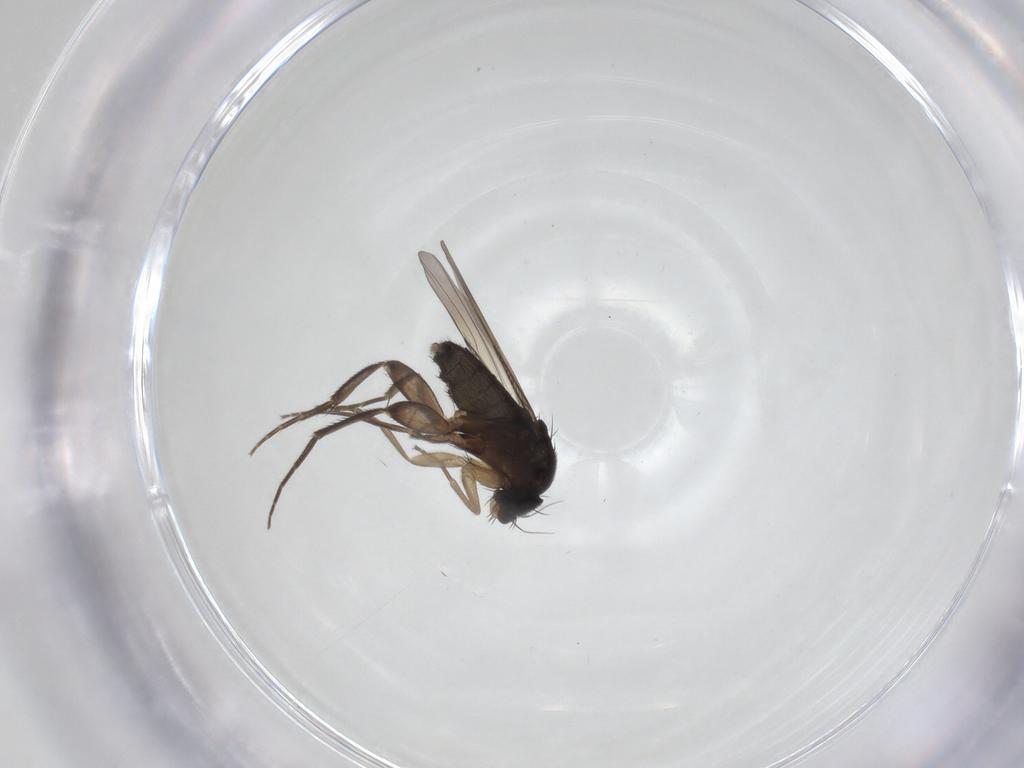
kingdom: Animalia
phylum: Arthropoda
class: Insecta
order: Diptera
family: Phoridae
